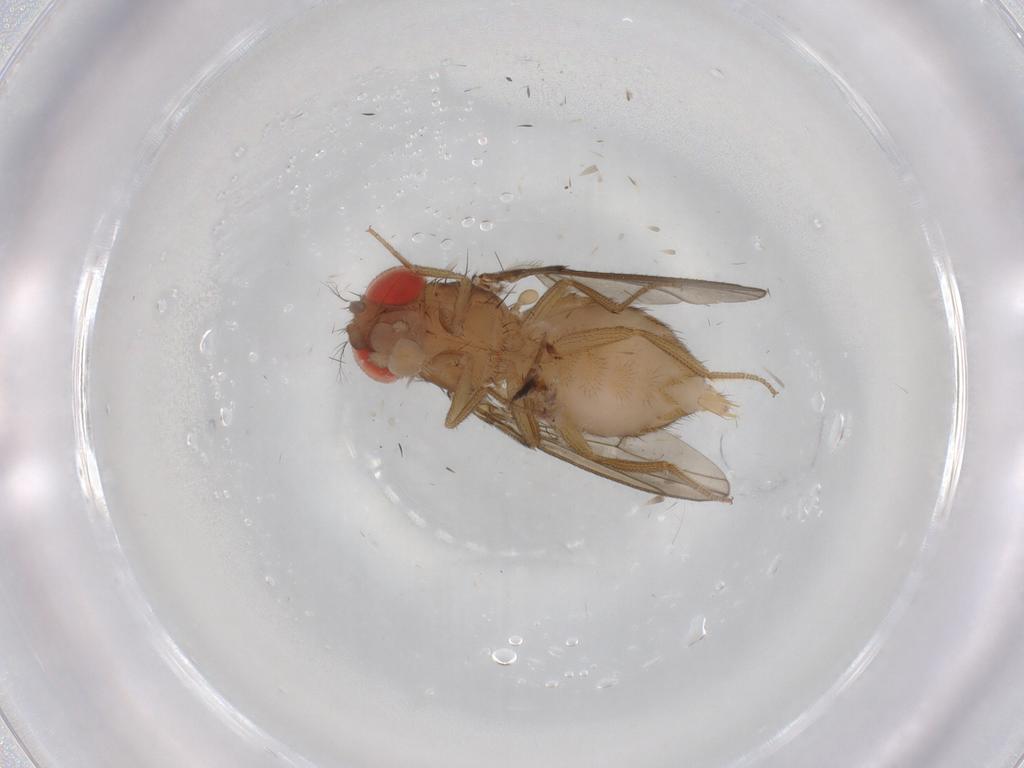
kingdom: Animalia
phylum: Arthropoda
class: Insecta
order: Diptera
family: Drosophilidae
